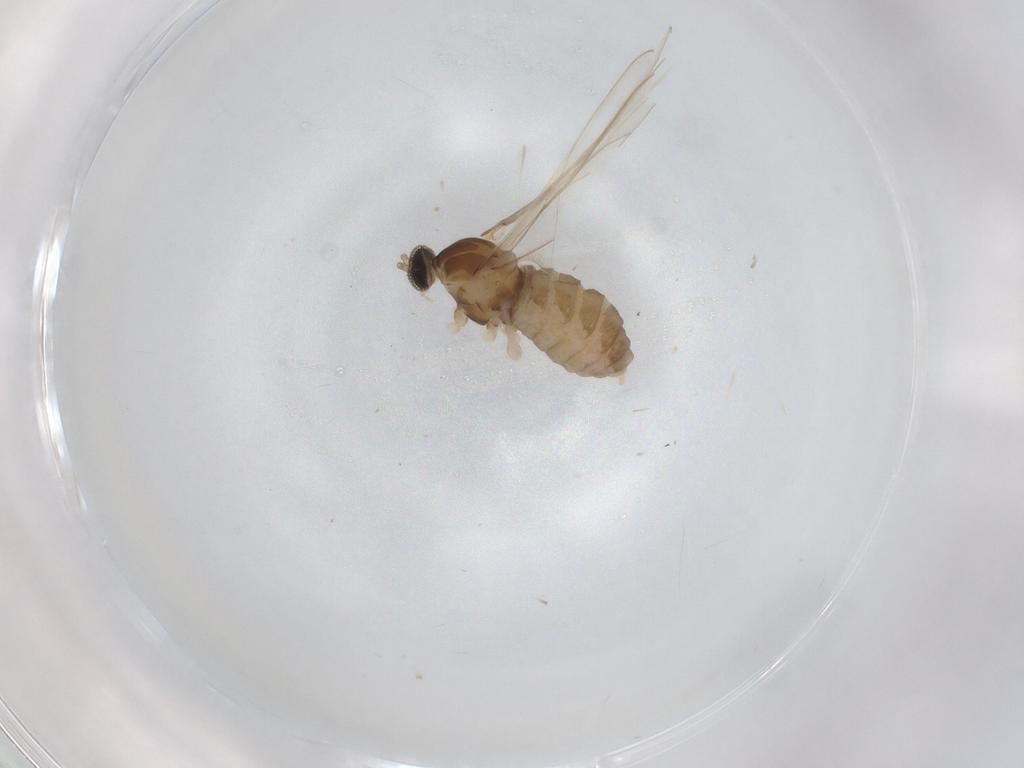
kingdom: Animalia
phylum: Arthropoda
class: Insecta
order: Diptera
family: Cecidomyiidae
